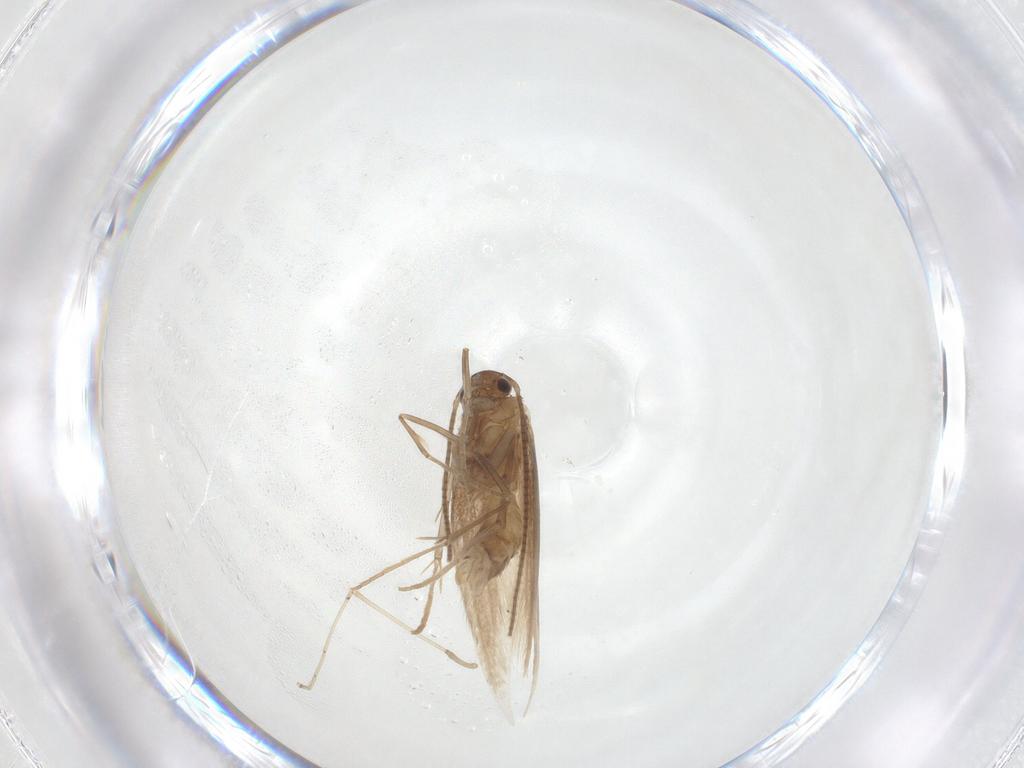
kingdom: Animalia
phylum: Arthropoda
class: Insecta
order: Lepidoptera
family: Gracillariidae
